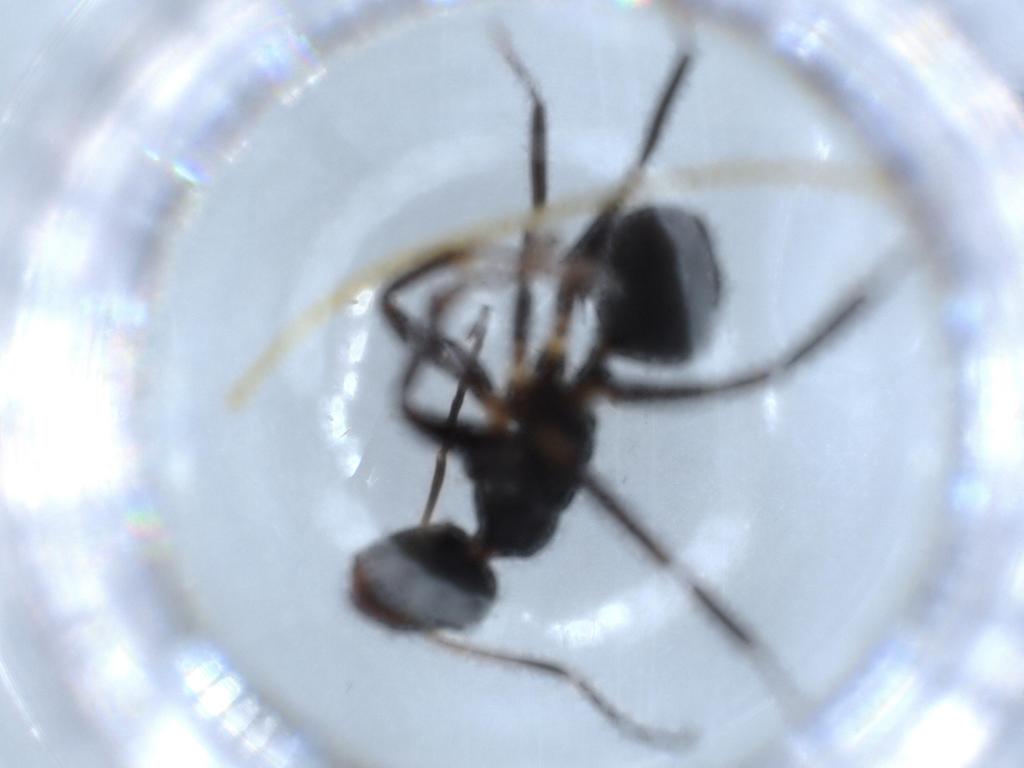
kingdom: Animalia
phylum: Arthropoda
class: Insecta
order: Hymenoptera
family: Formicidae
